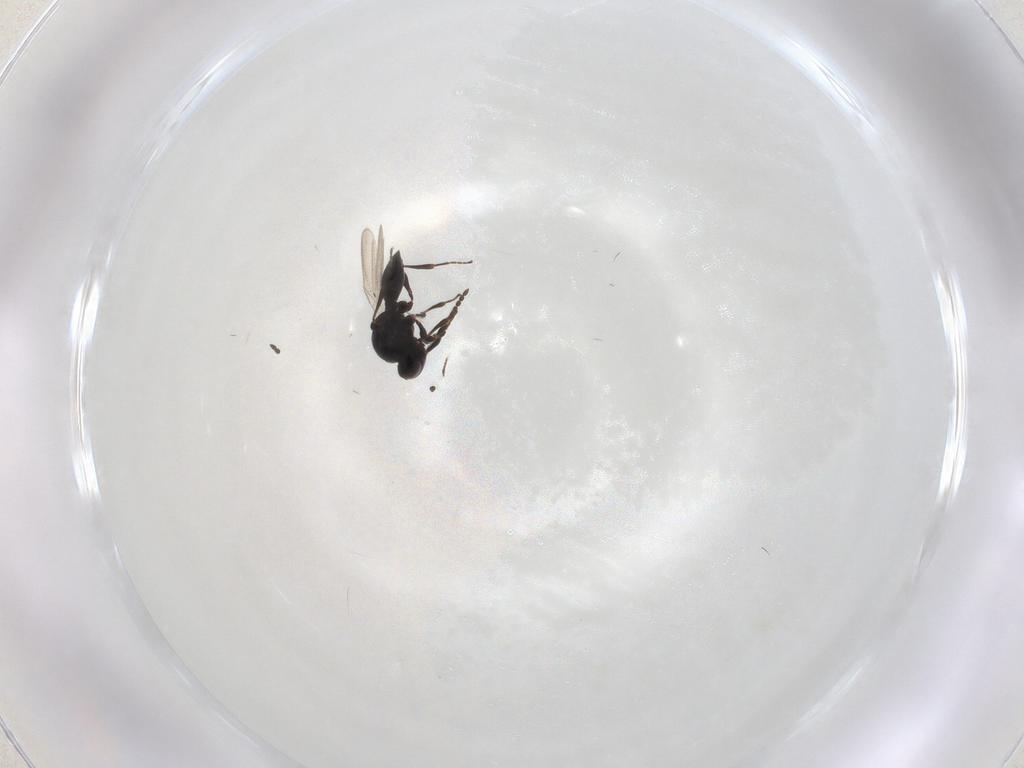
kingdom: Animalia
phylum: Arthropoda
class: Insecta
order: Hymenoptera
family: Platygastridae
